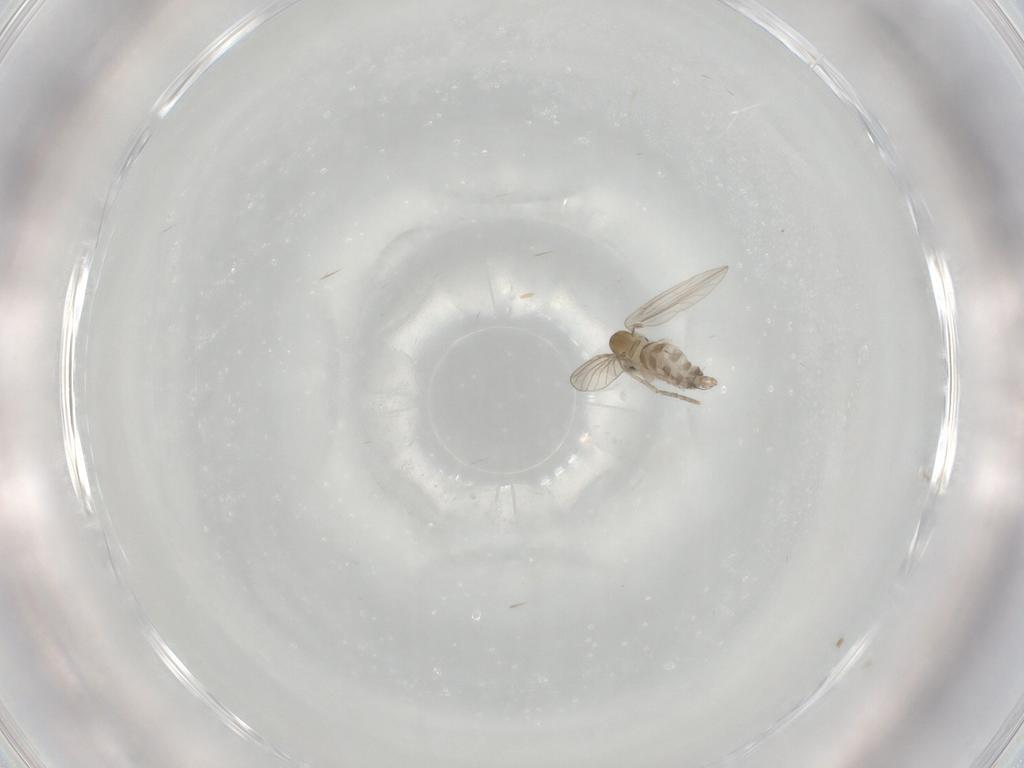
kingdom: Animalia
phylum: Arthropoda
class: Insecta
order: Diptera
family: Psychodidae
